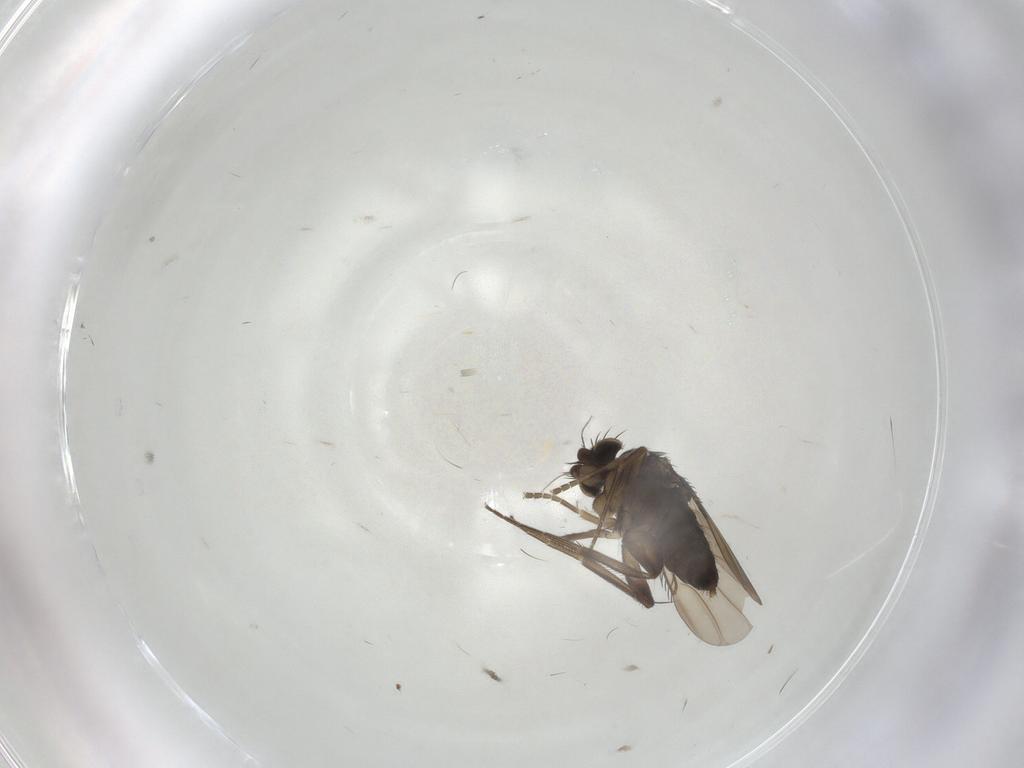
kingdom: Animalia
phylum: Arthropoda
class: Insecta
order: Diptera
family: Phoridae
